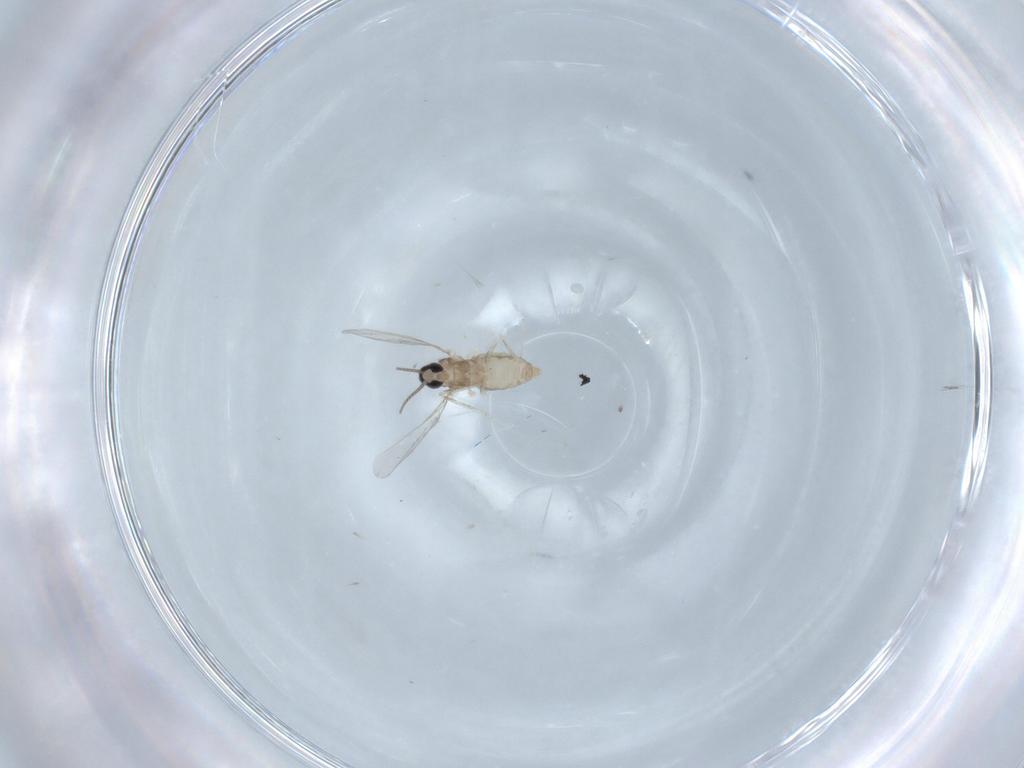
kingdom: Animalia
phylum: Arthropoda
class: Insecta
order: Diptera
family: Cecidomyiidae
